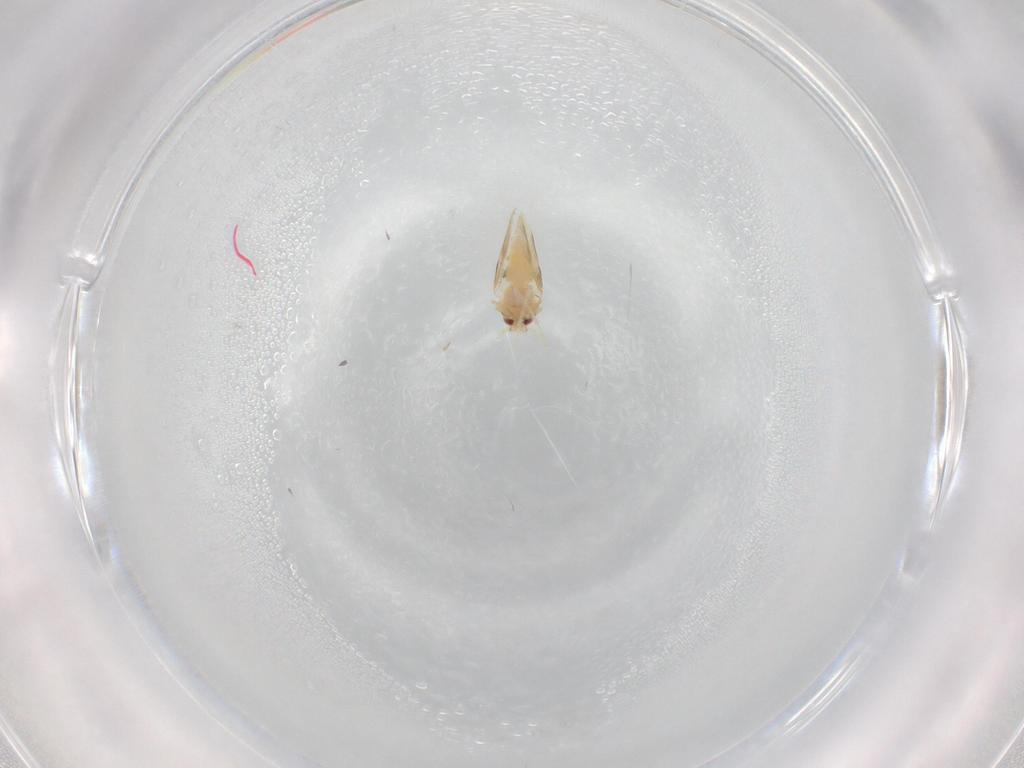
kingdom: Animalia
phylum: Arthropoda
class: Insecta
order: Hemiptera
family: Aleyrodidae
